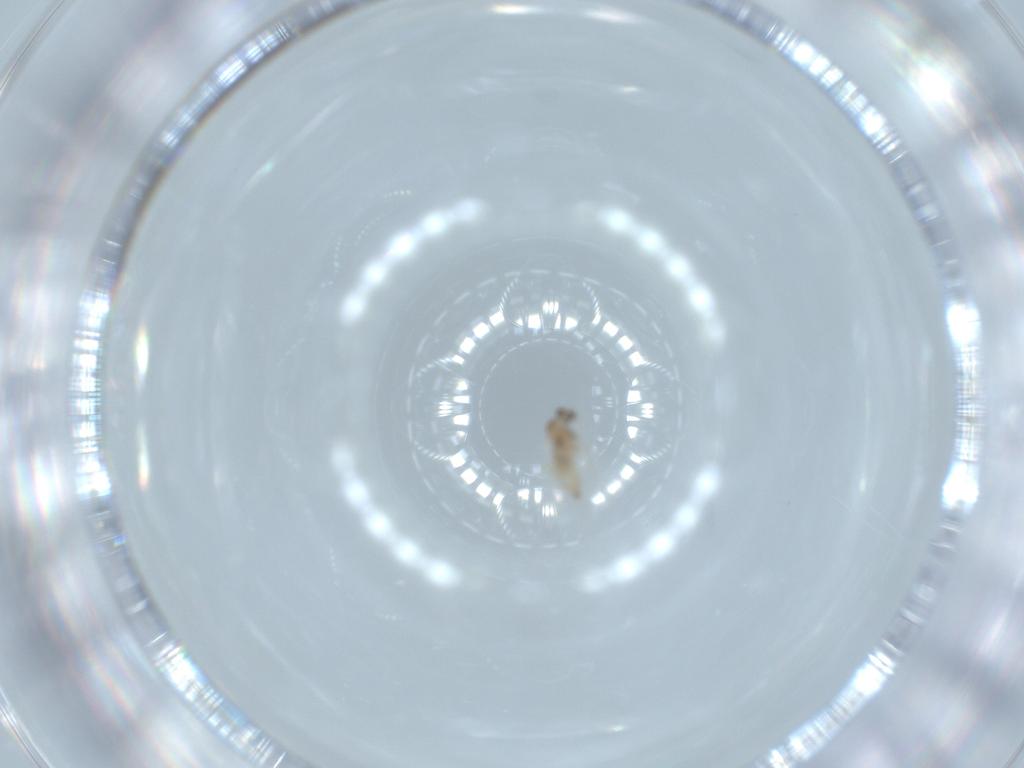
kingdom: Animalia
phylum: Arthropoda
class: Insecta
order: Diptera
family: Cecidomyiidae
